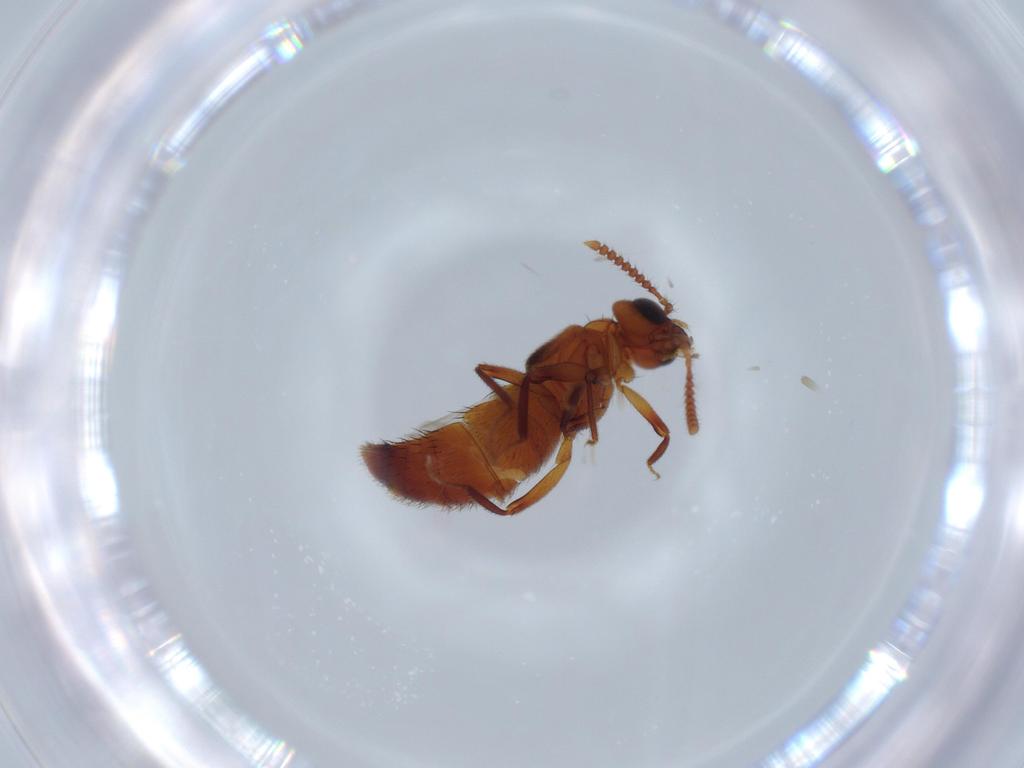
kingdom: Animalia
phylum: Arthropoda
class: Insecta
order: Coleoptera
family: Staphylinidae
